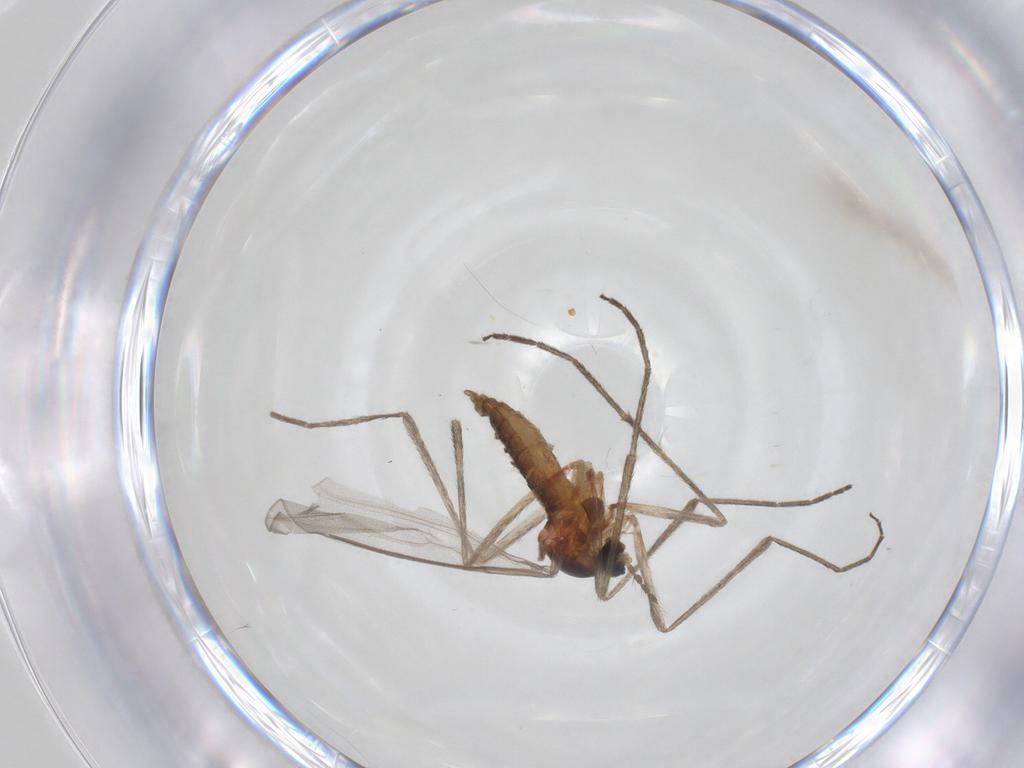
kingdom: Animalia
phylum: Arthropoda
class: Insecta
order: Diptera
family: Cecidomyiidae
